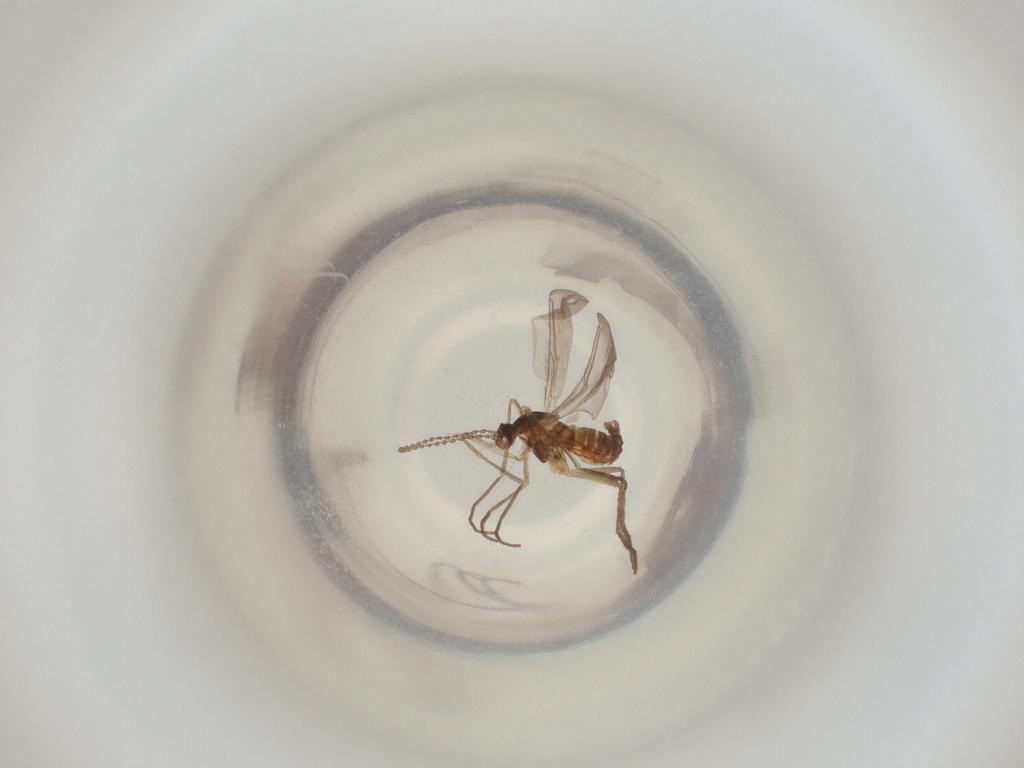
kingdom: Animalia
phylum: Arthropoda
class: Insecta
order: Diptera
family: Cecidomyiidae
